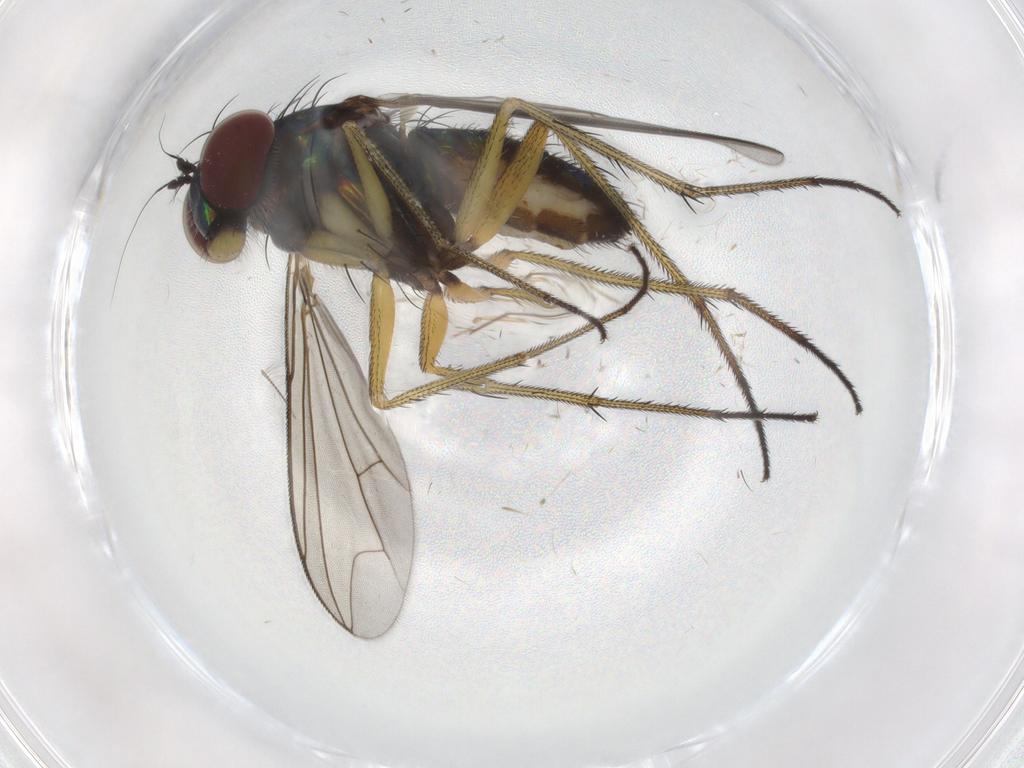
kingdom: Animalia
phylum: Arthropoda
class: Insecta
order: Diptera
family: Dolichopodidae
